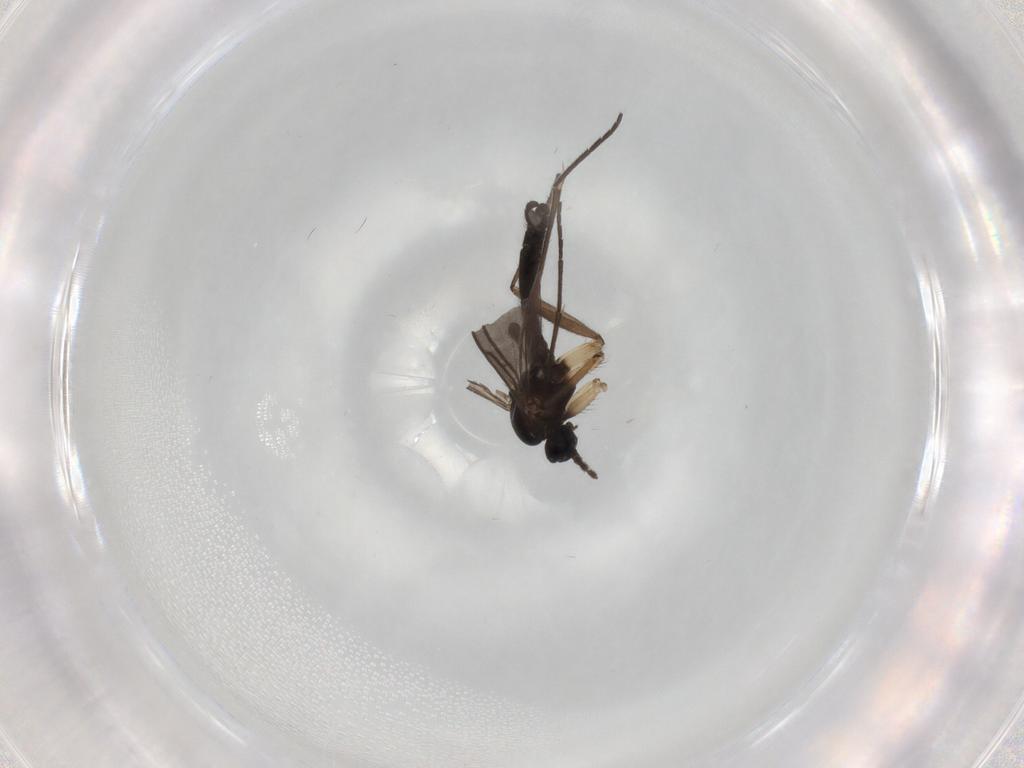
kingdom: Animalia
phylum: Arthropoda
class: Insecta
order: Diptera
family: Sciaridae
